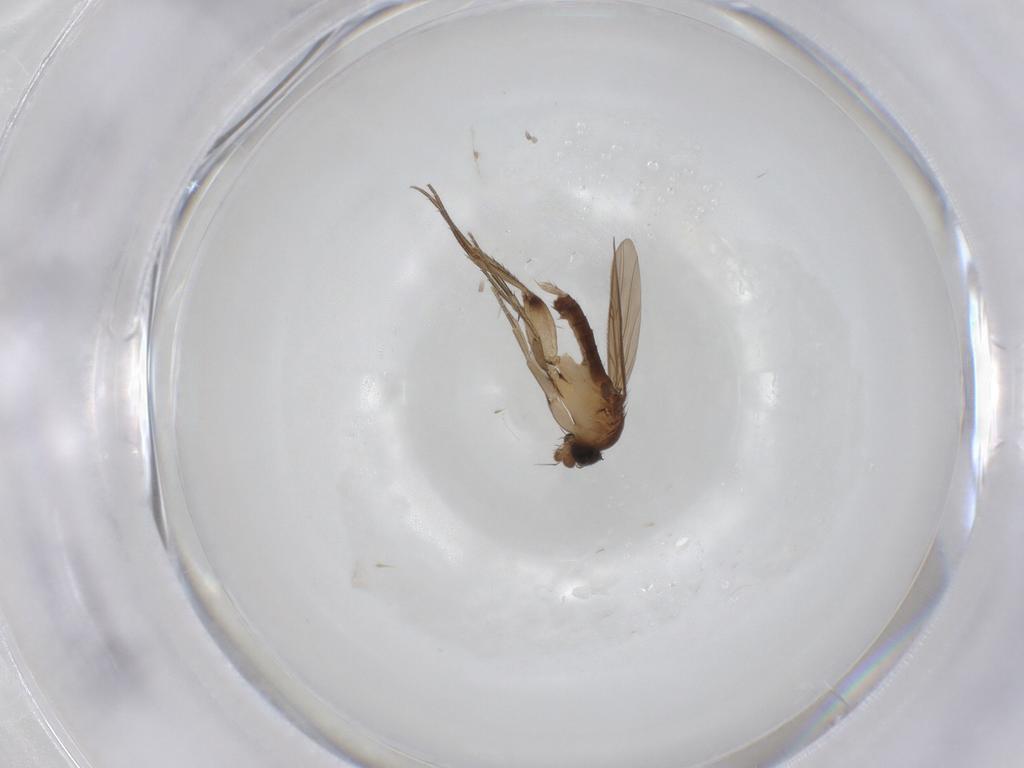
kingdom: Animalia
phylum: Arthropoda
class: Insecta
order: Diptera
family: Phoridae
